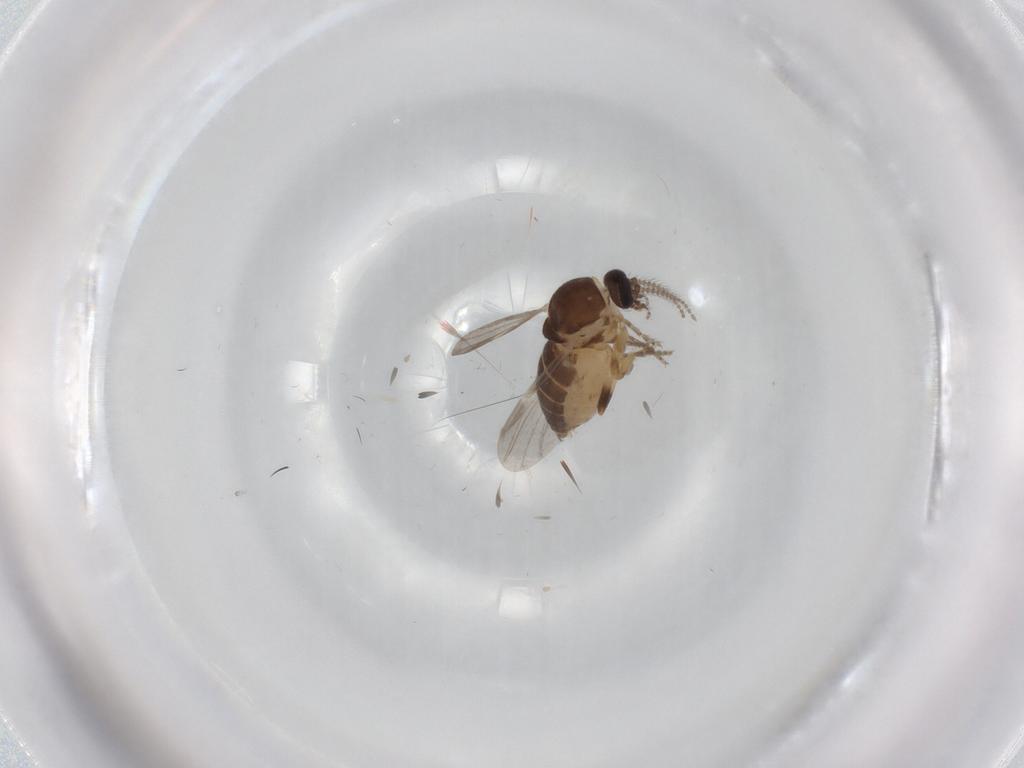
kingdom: Animalia
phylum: Arthropoda
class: Insecta
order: Diptera
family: Ceratopogonidae
